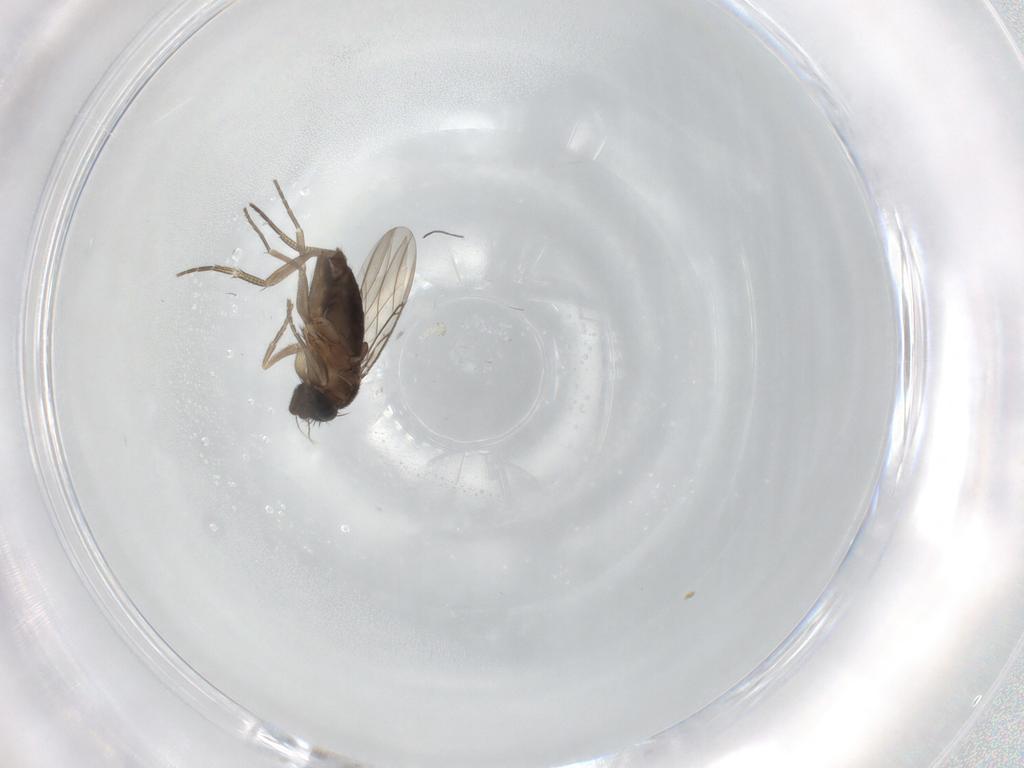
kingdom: Animalia
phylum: Arthropoda
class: Insecta
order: Diptera
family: Phoridae
